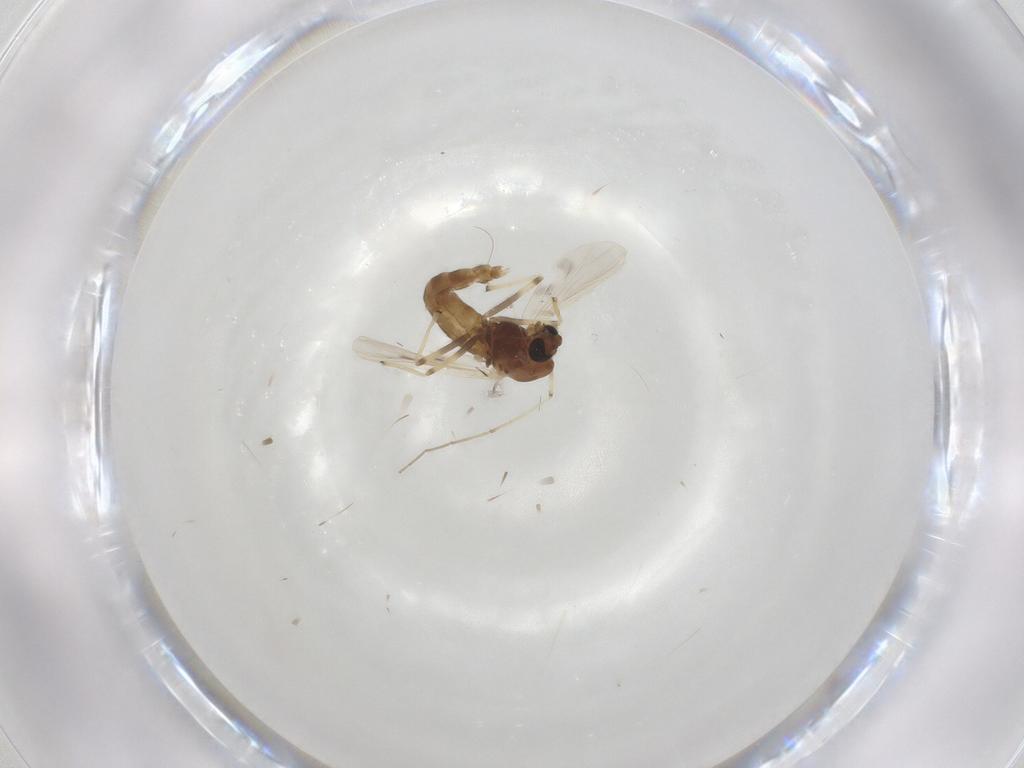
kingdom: Animalia
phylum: Arthropoda
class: Insecta
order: Diptera
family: Chironomidae
